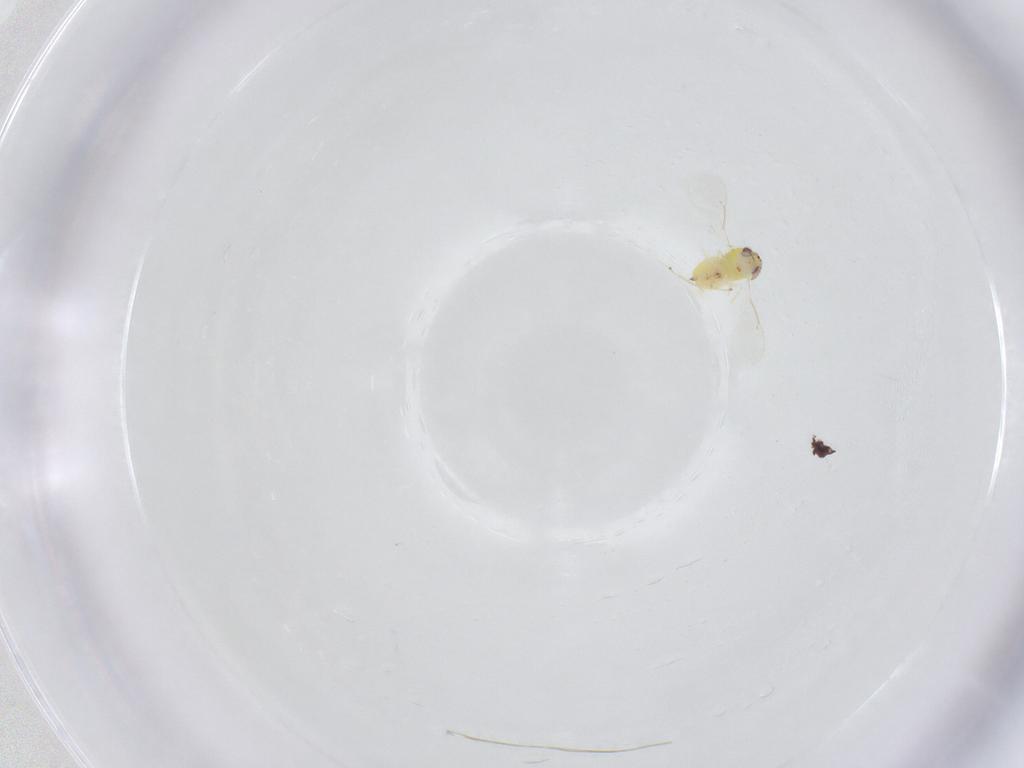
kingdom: Animalia
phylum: Arthropoda
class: Insecta
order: Hymenoptera
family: Eulophidae
